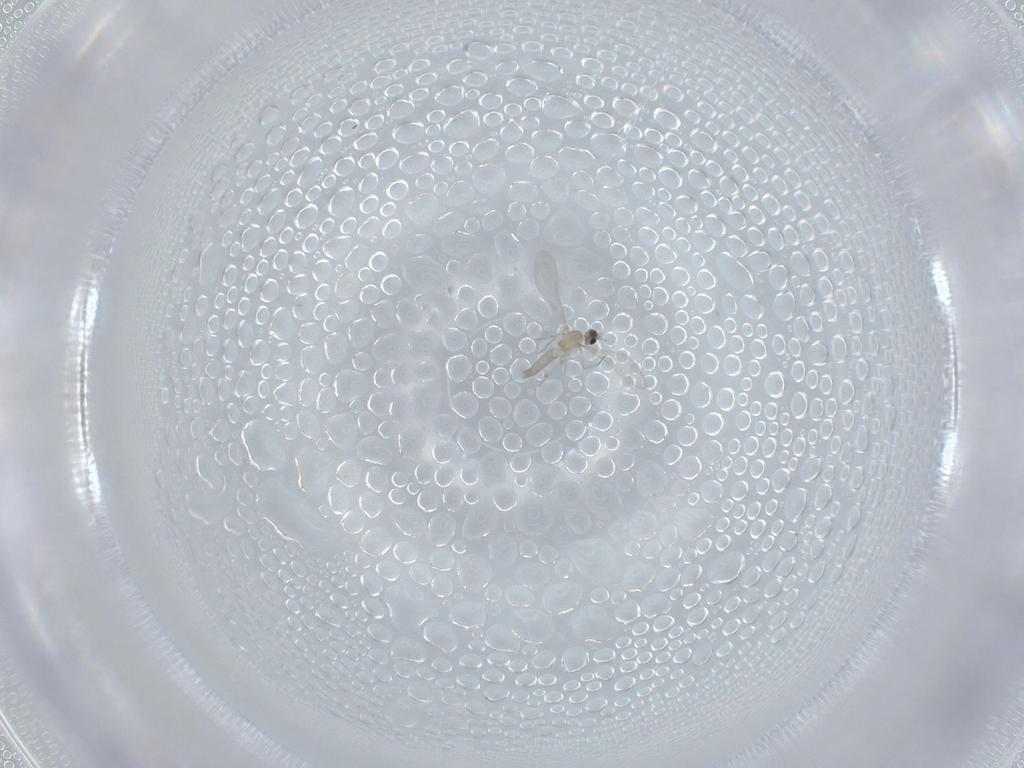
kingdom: Animalia
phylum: Arthropoda
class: Insecta
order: Diptera
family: Cecidomyiidae
